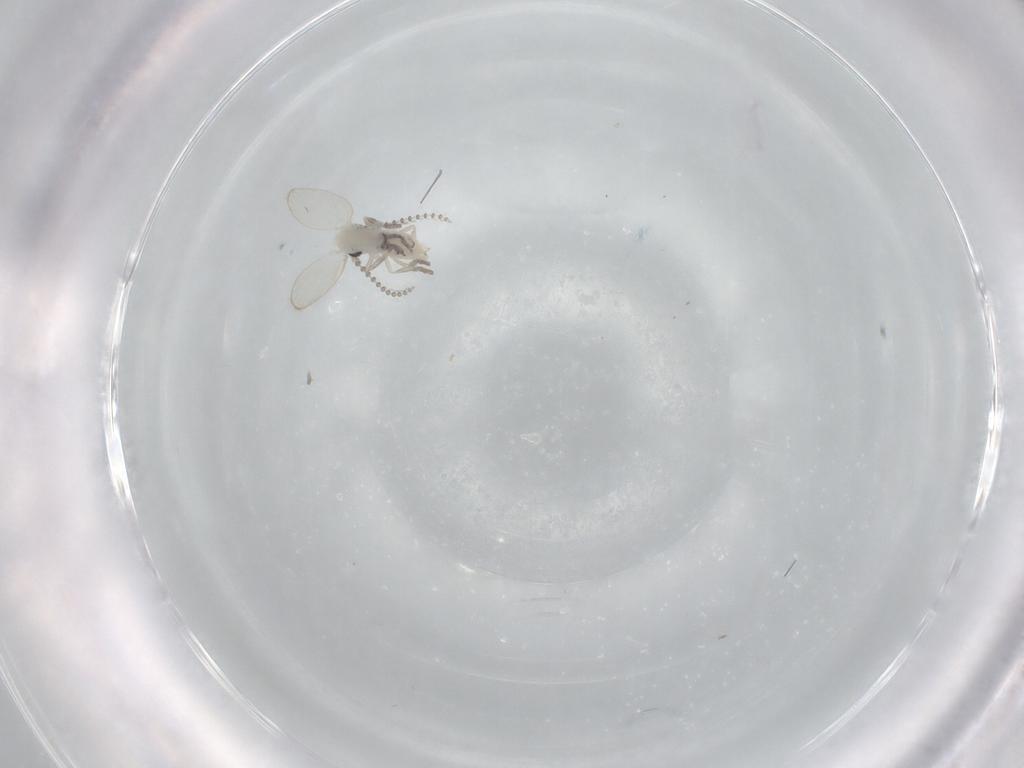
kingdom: Animalia
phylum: Arthropoda
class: Insecta
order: Diptera
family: Psychodidae
